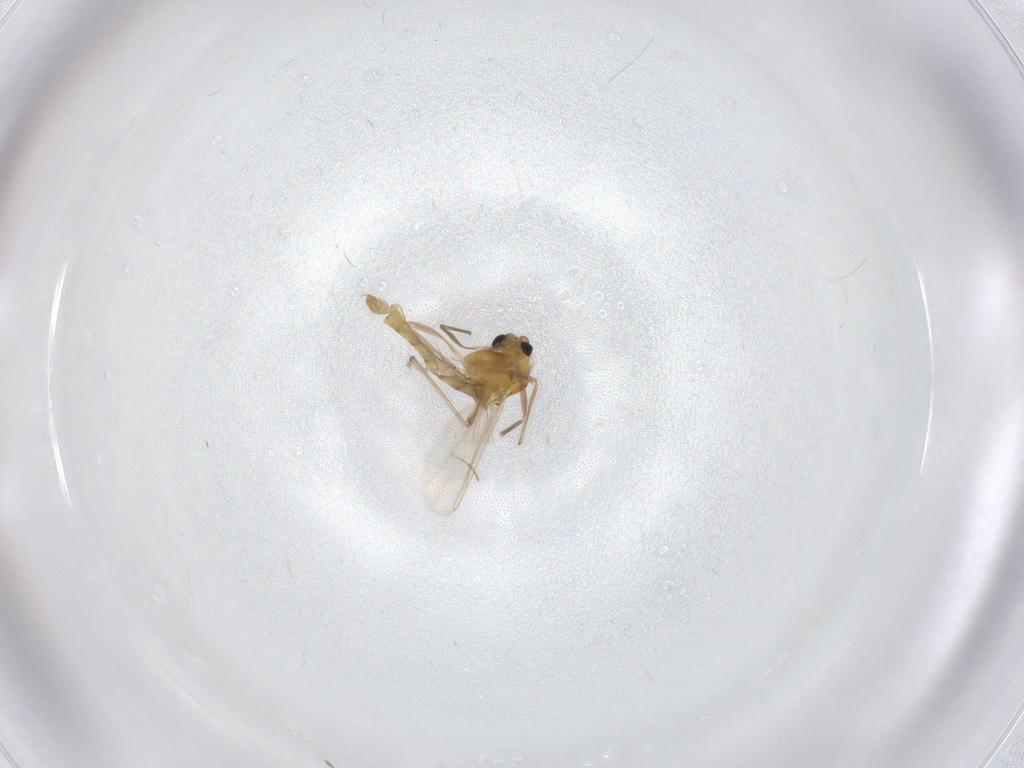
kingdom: Animalia
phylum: Arthropoda
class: Insecta
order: Diptera
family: Chironomidae
